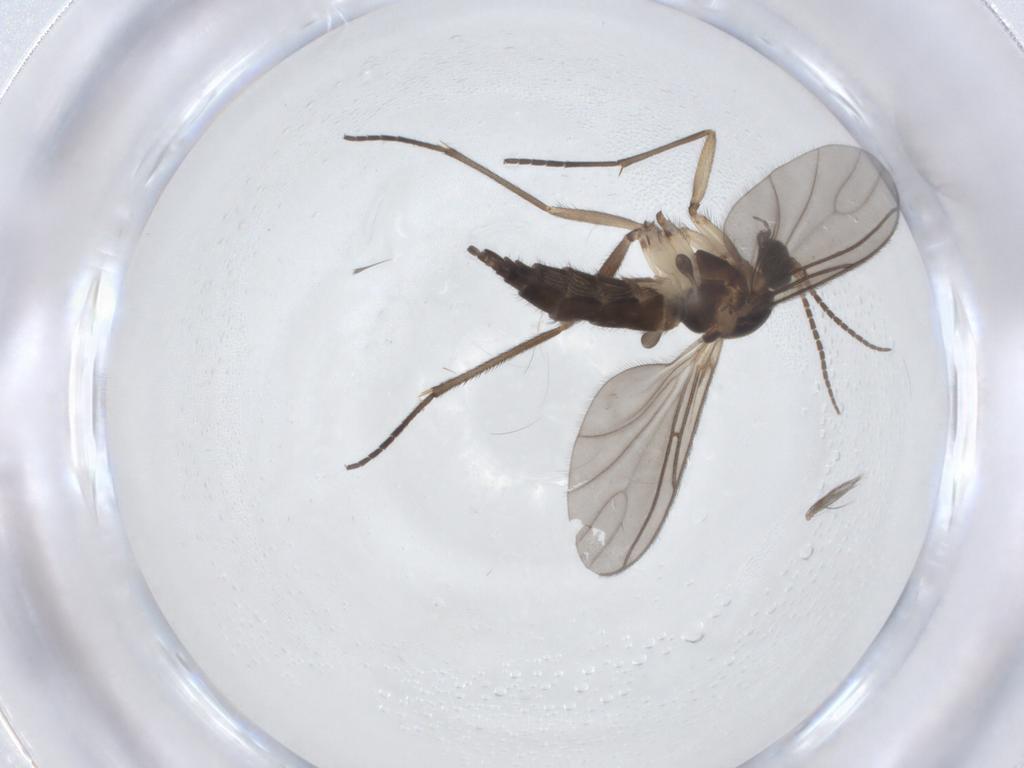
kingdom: Animalia
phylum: Arthropoda
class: Insecta
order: Diptera
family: Sciaridae
